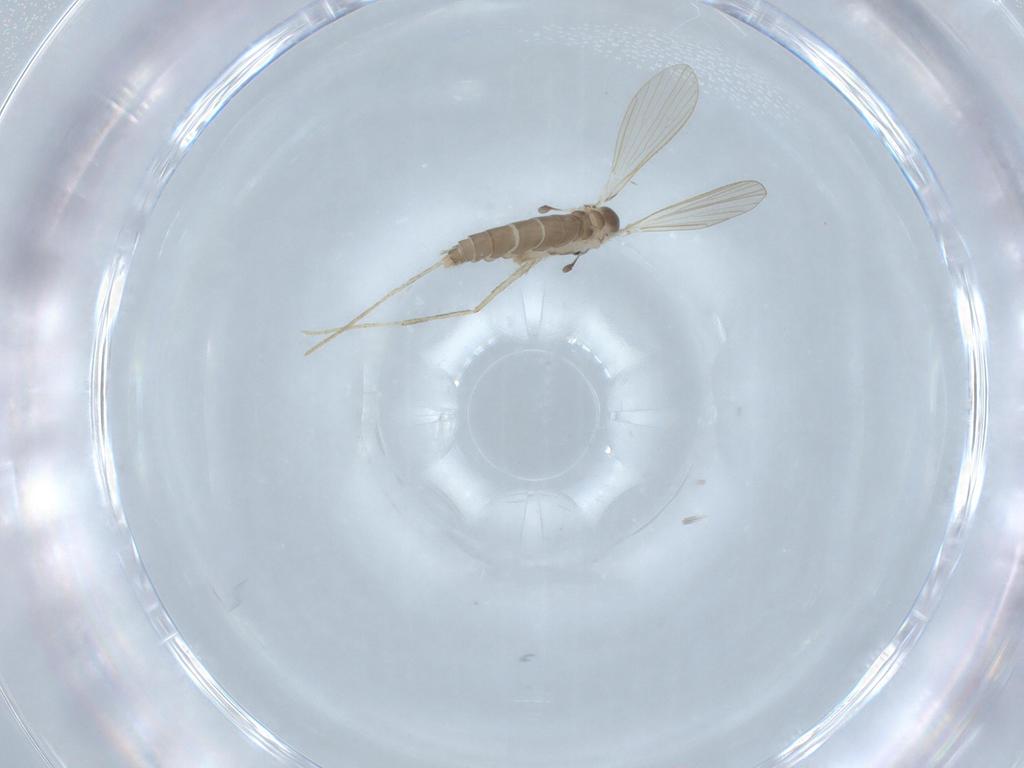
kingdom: Animalia
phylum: Arthropoda
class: Insecta
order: Diptera
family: Psychodidae
